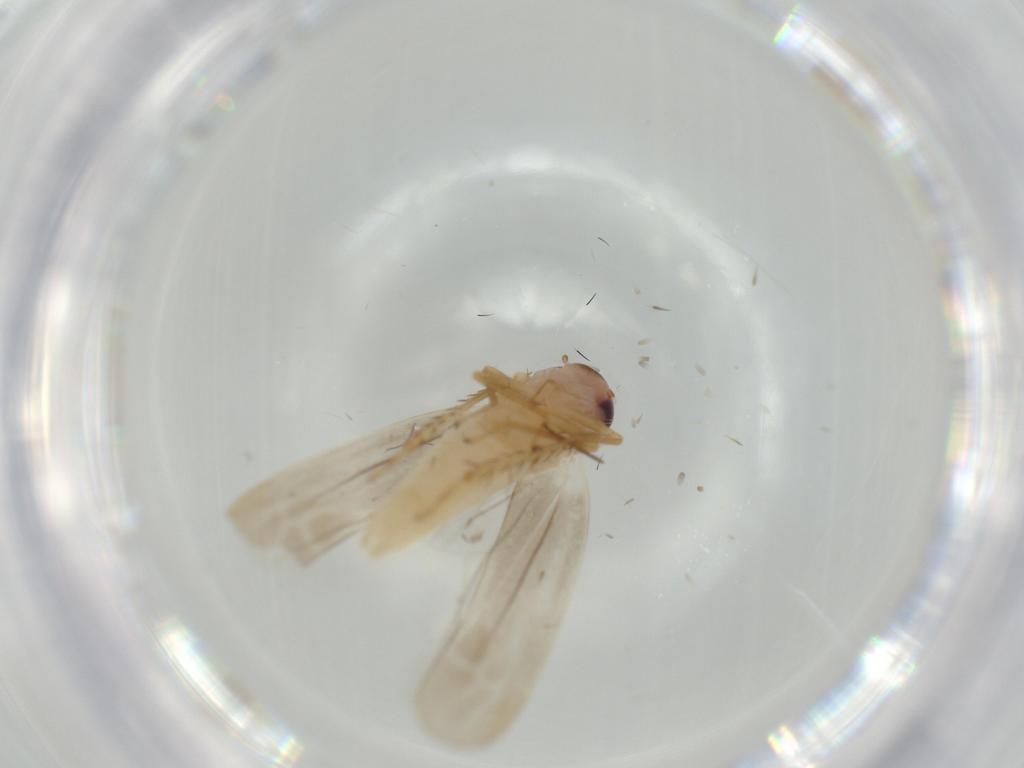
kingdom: Animalia
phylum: Arthropoda
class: Insecta
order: Hemiptera
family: Cicadellidae
